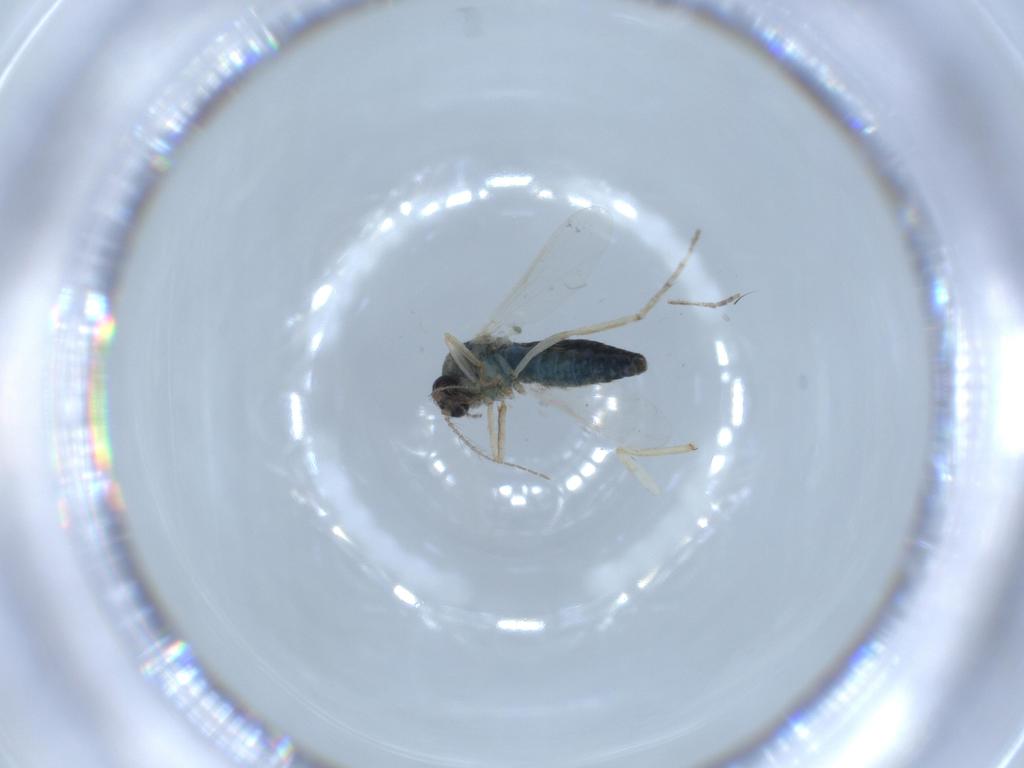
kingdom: Animalia
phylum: Arthropoda
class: Insecta
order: Diptera
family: Ceratopogonidae
